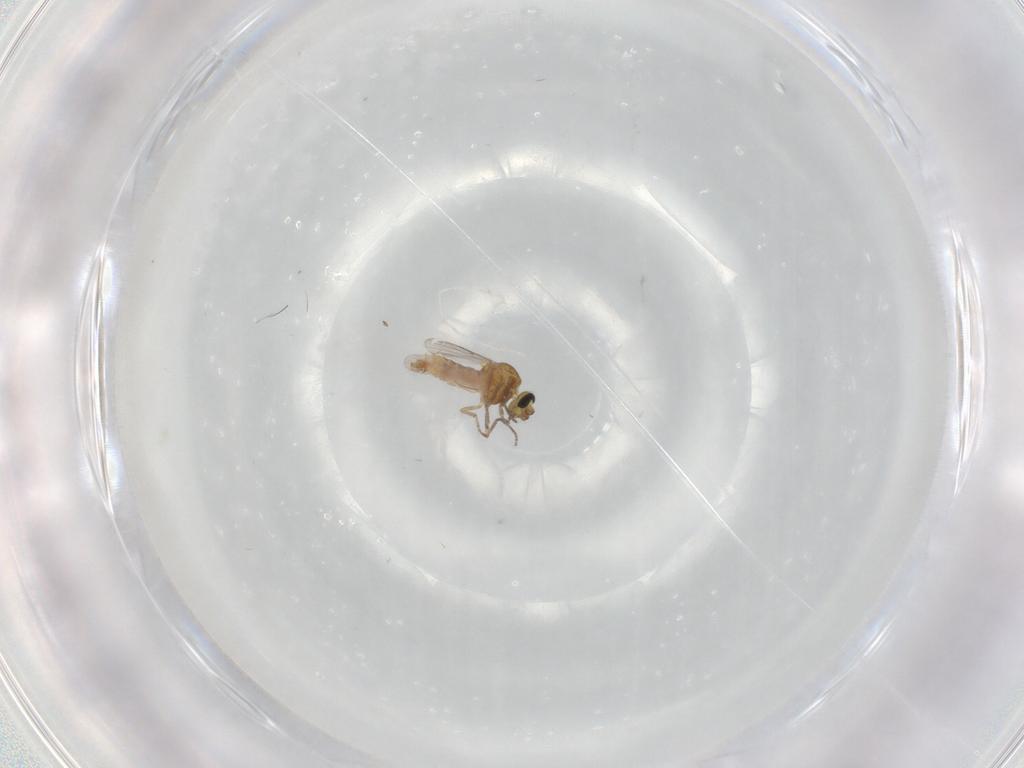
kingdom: Animalia
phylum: Arthropoda
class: Insecta
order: Diptera
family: Ceratopogonidae
